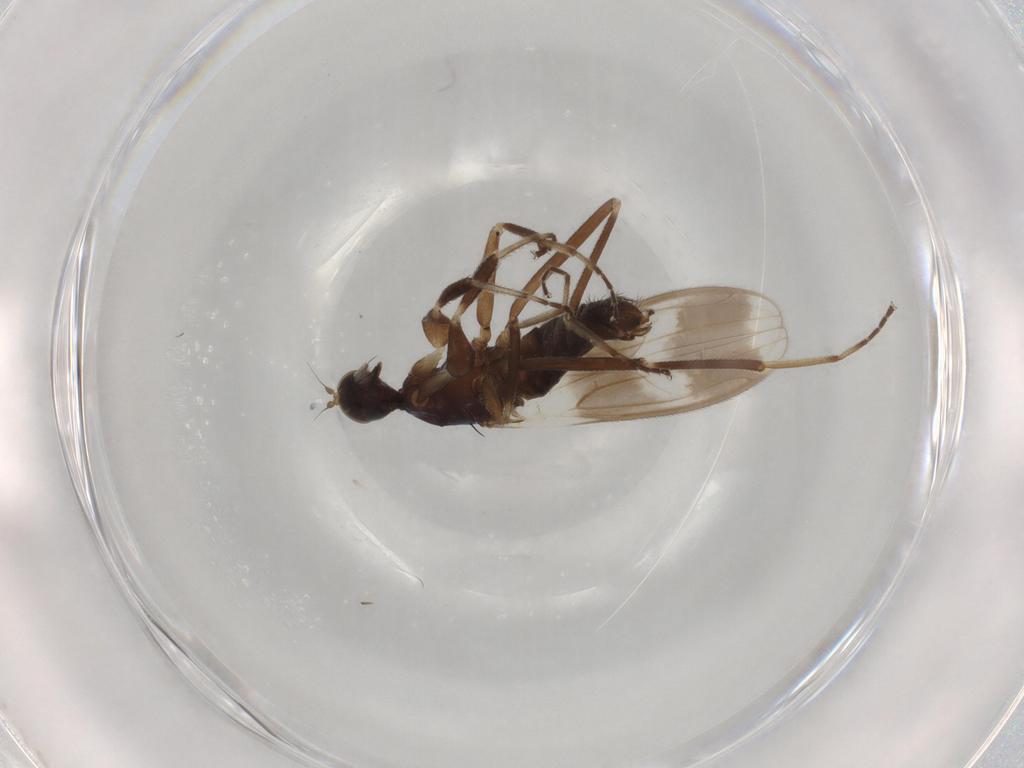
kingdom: Animalia
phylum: Arthropoda
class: Insecta
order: Diptera
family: Hybotidae
